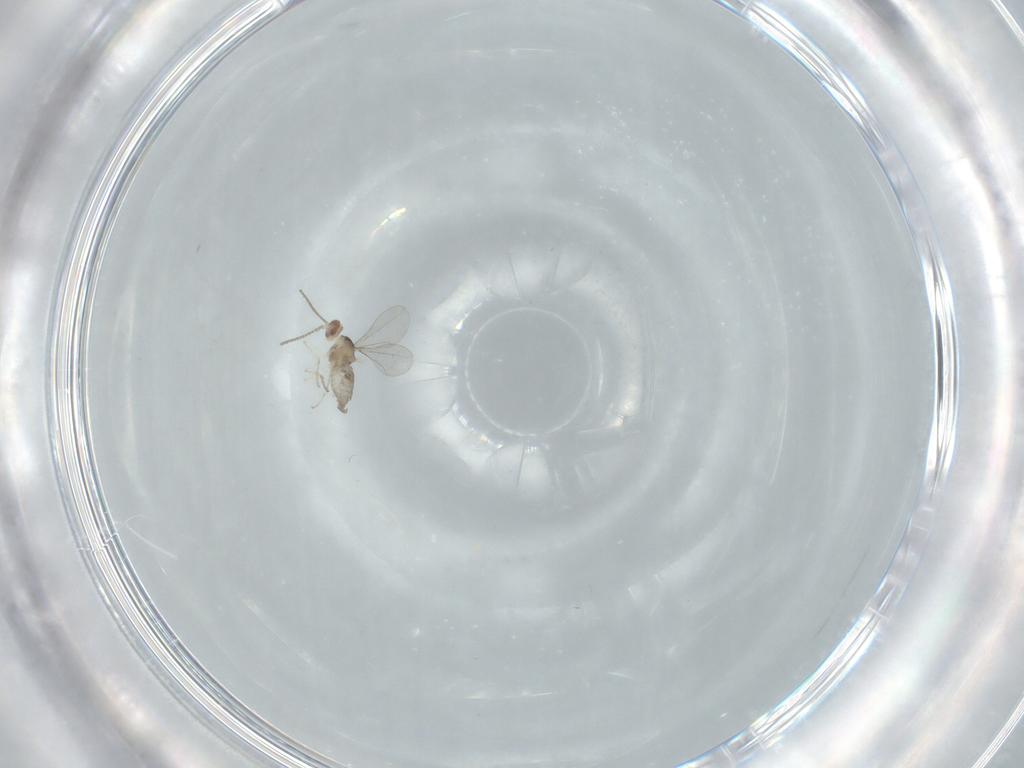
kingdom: Animalia
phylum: Arthropoda
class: Insecta
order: Diptera
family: Cecidomyiidae
